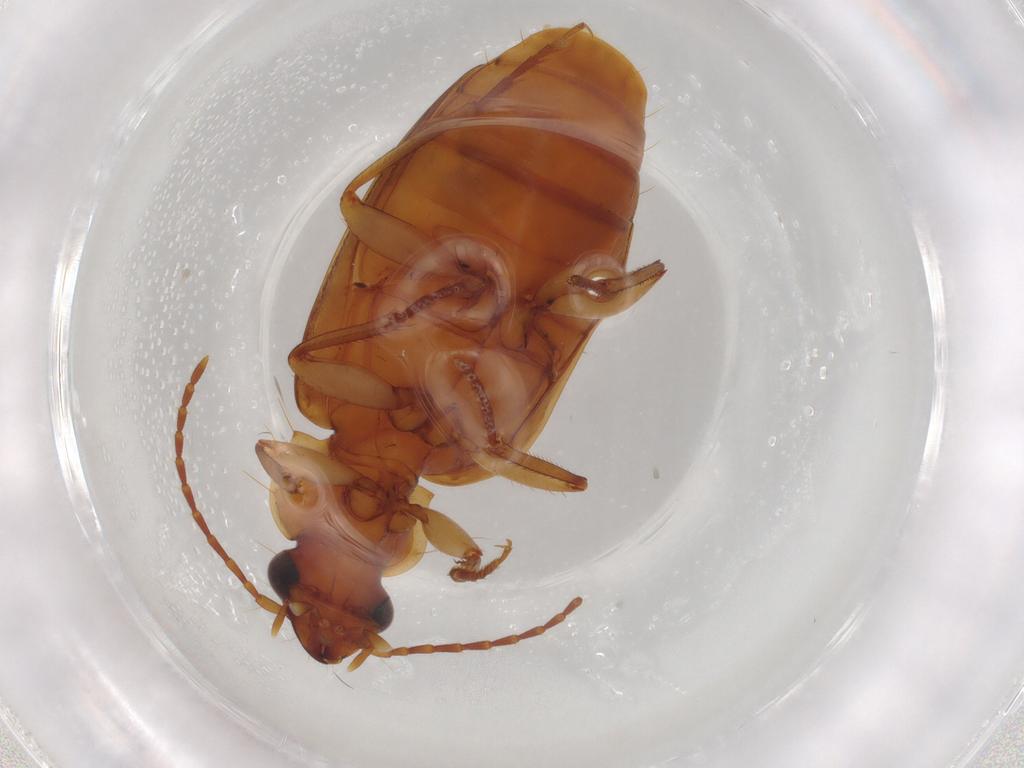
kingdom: Animalia
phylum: Arthropoda
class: Insecta
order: Coleoptera
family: Carabidae
